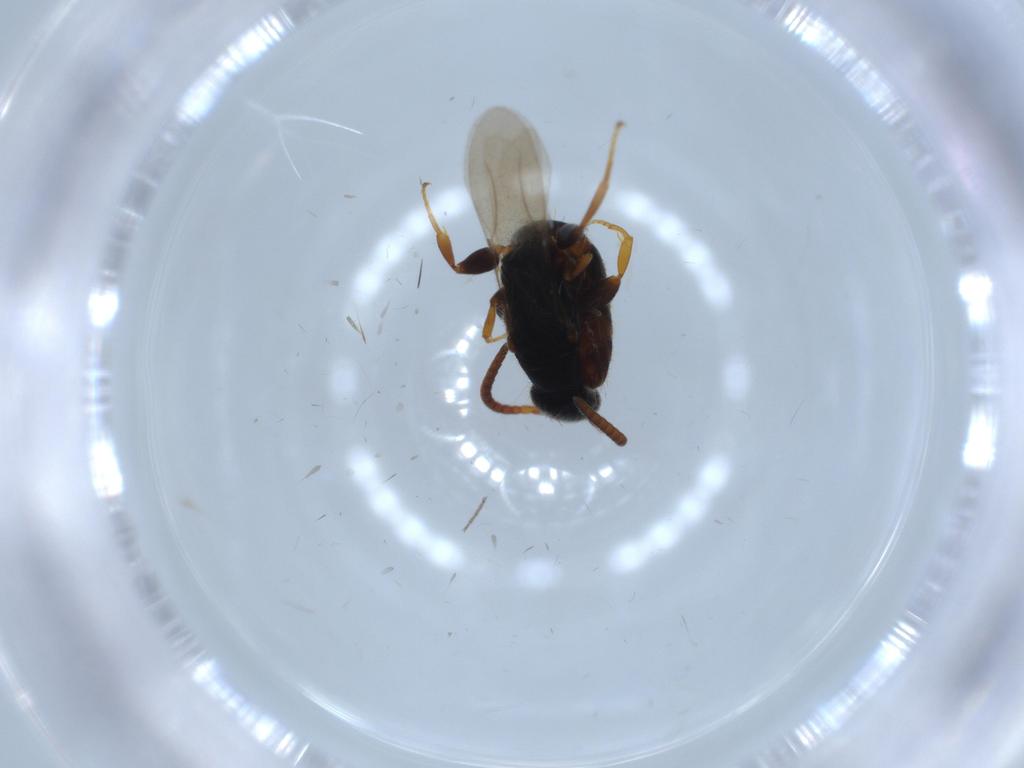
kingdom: Animalia
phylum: Arthropoda
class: Insecta
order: Hymenoptera
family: Bethylidae
